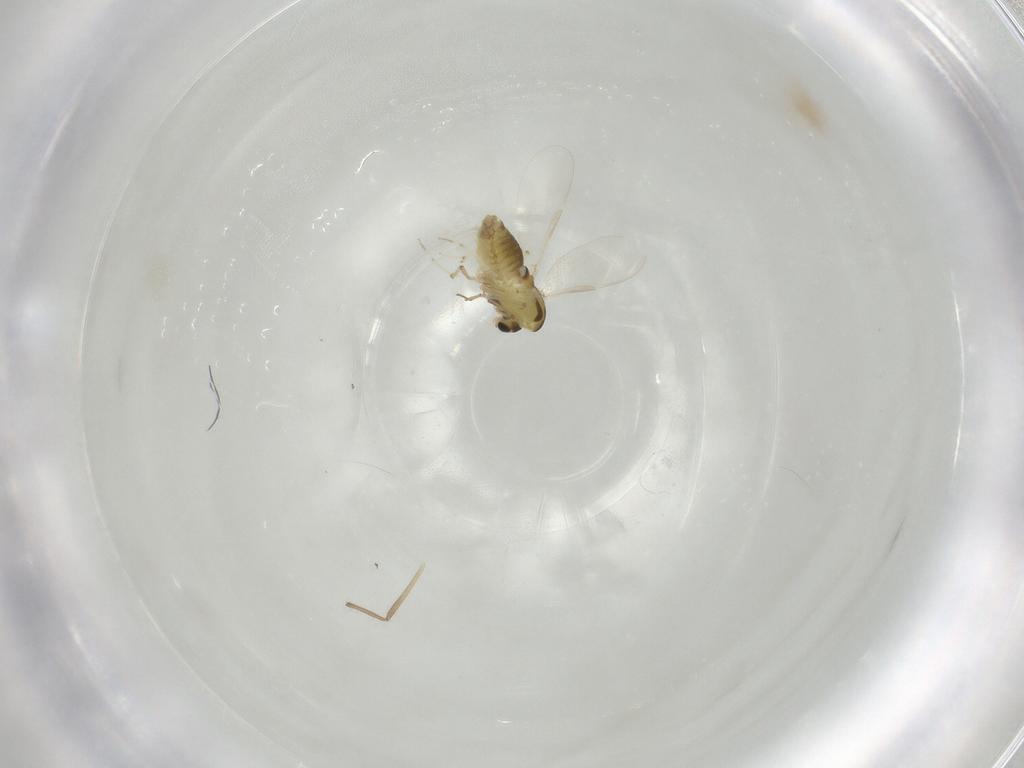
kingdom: Animalia
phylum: Arthropoda
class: Insecta
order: Diptera
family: Chironomidae
